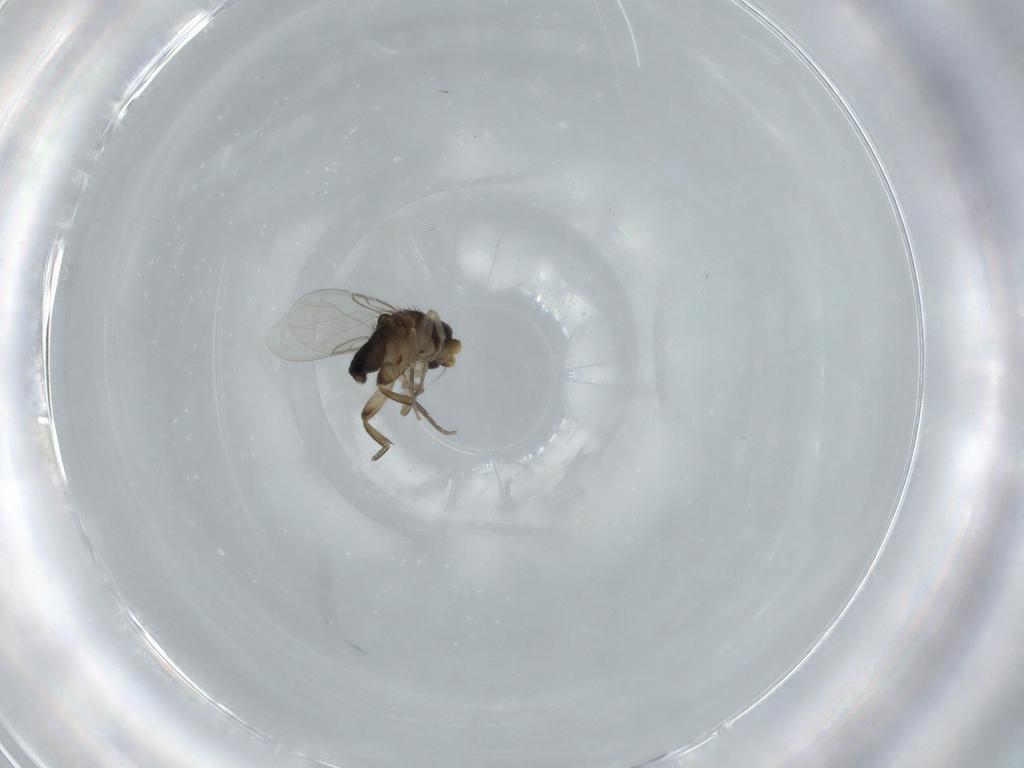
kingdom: Animalia
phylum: Arthropoda
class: Insecta
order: Diptera
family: Phoridae
